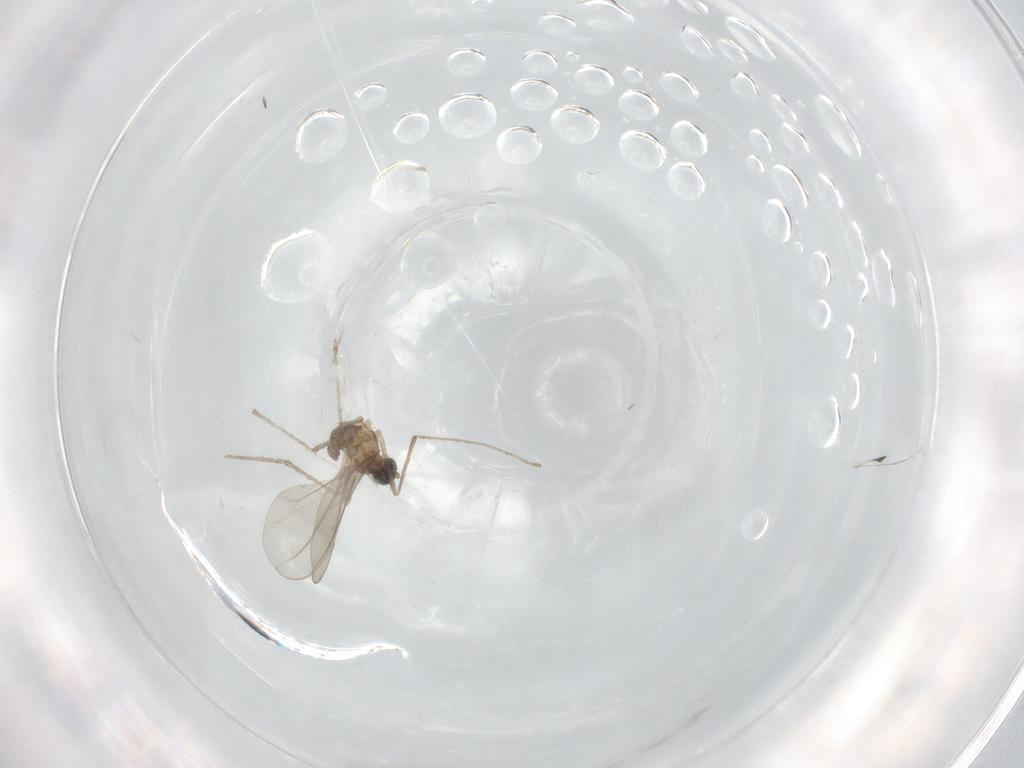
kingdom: Animalia
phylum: Arthropoda
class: Insecta
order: Diptera
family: Cecidomyiidae
